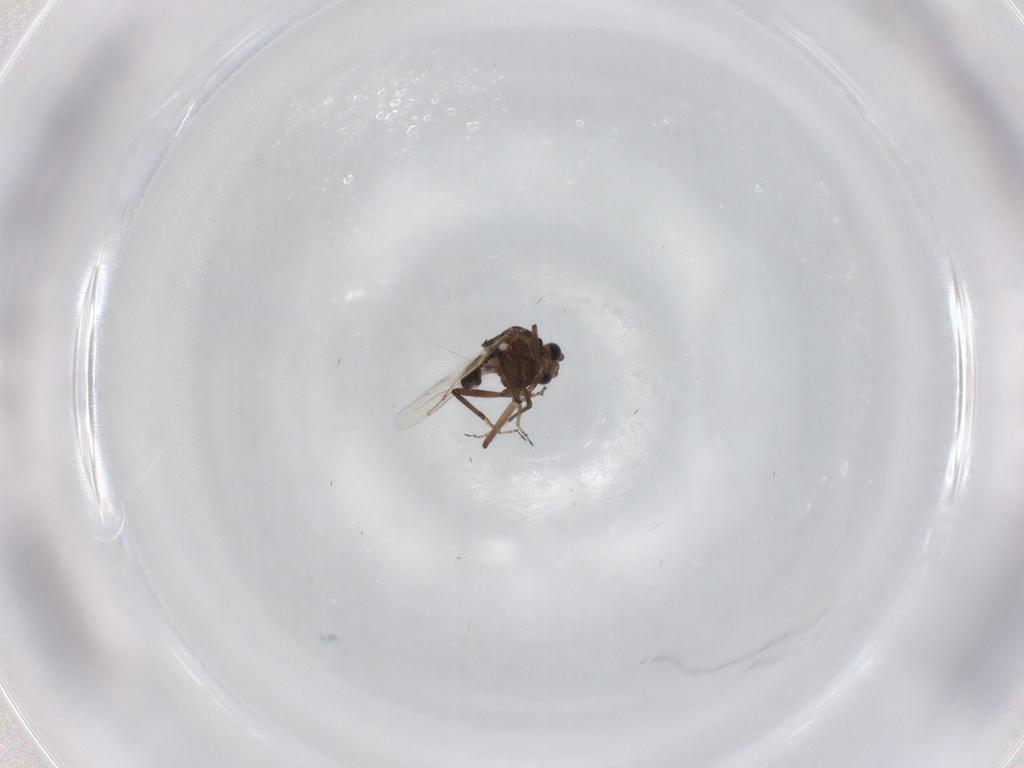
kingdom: Animalia
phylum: Arthropoda
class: Insecta
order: Diptera
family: Ceratopogonidae
